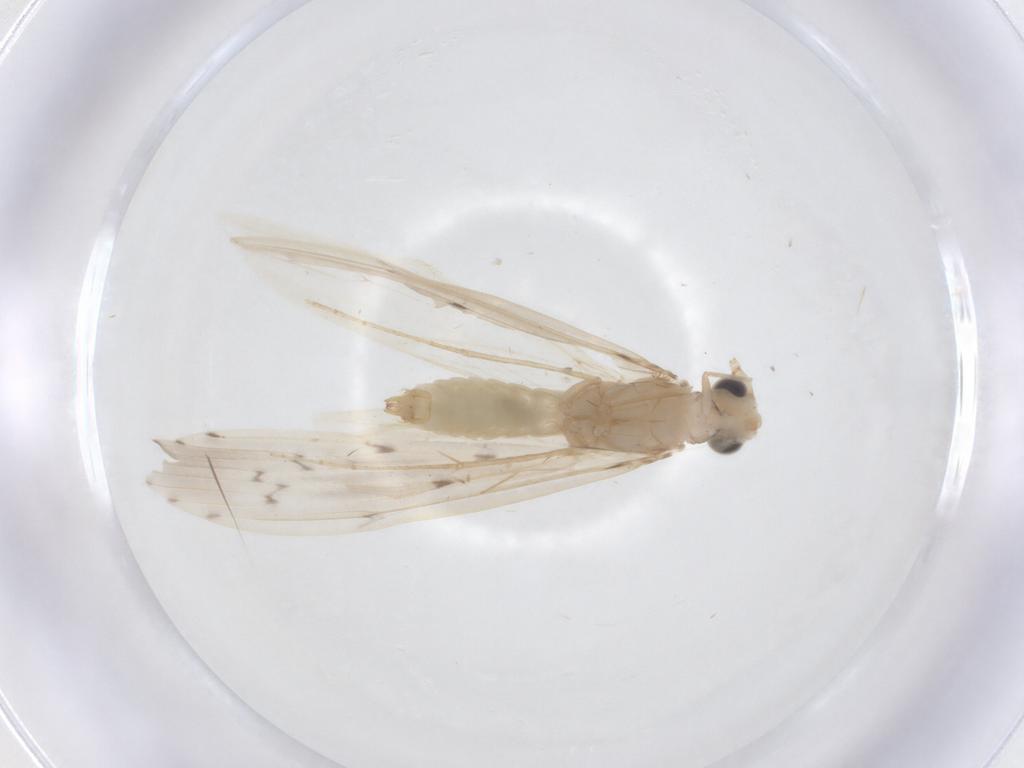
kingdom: Animalia
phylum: Arthropoda
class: Insecta
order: Trichoptera
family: Leptoceridae
